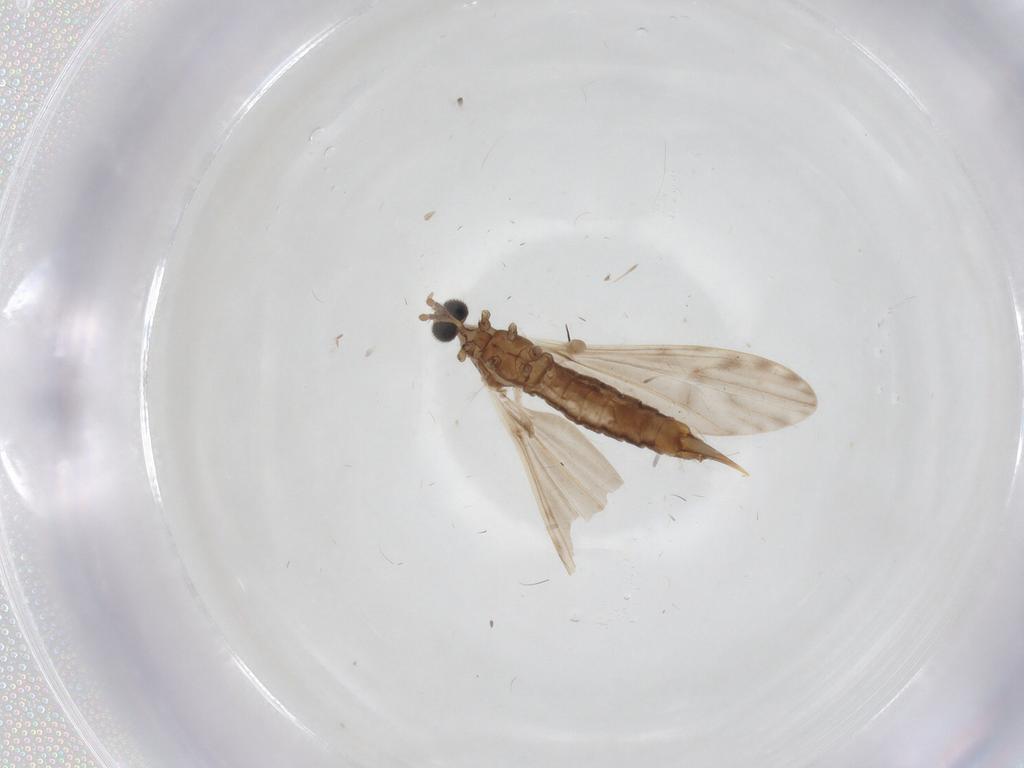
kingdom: Animalia
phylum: Arthropoda
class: Insecta
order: Diptera
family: Limoniidae
